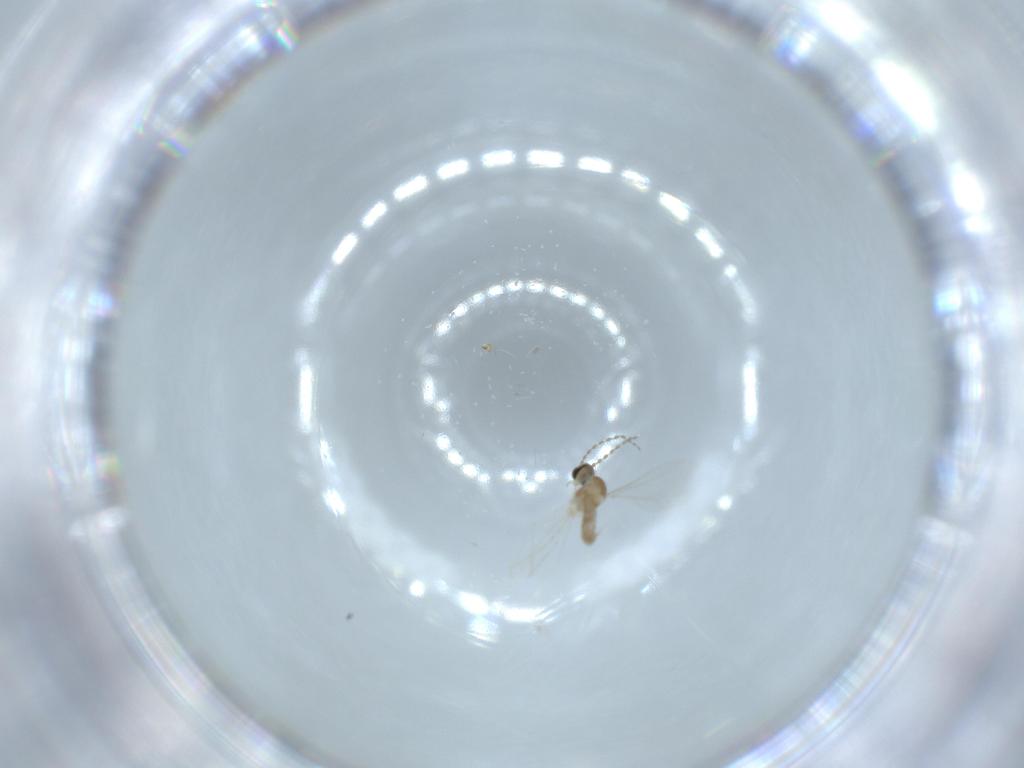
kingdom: Animalia
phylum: Arthropoda
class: Insecta
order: Diptera
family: Cecidomyiidae
